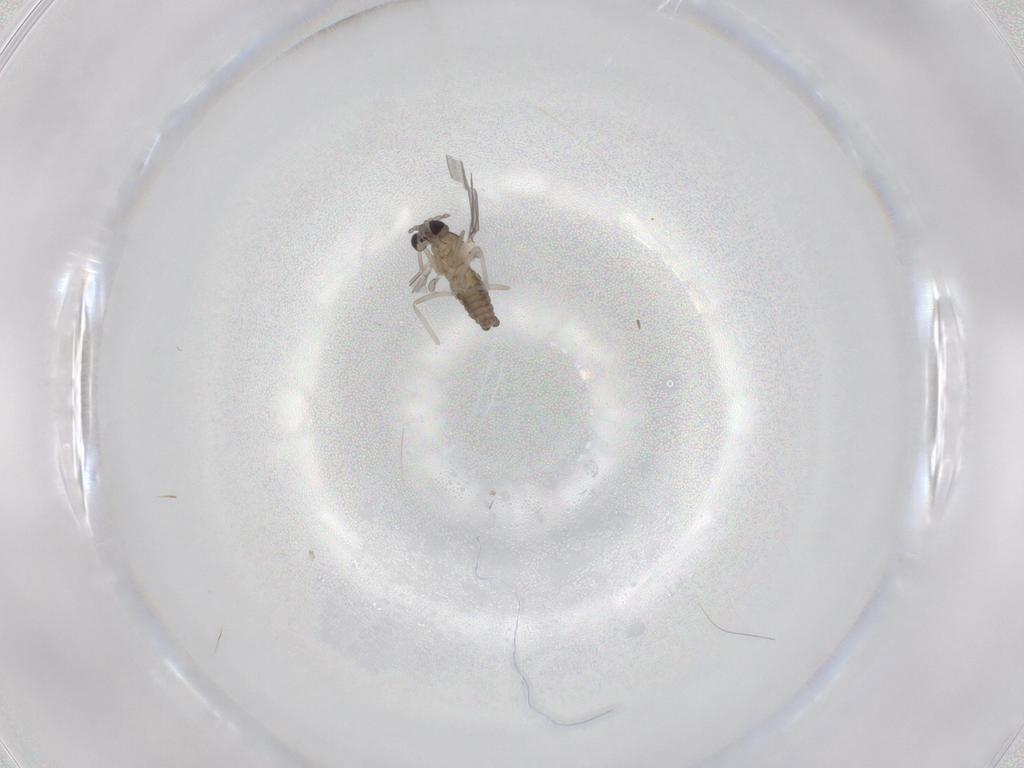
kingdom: Animalia
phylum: Arthropoda
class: Insecta
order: Diptera
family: Cecidomyiidae
